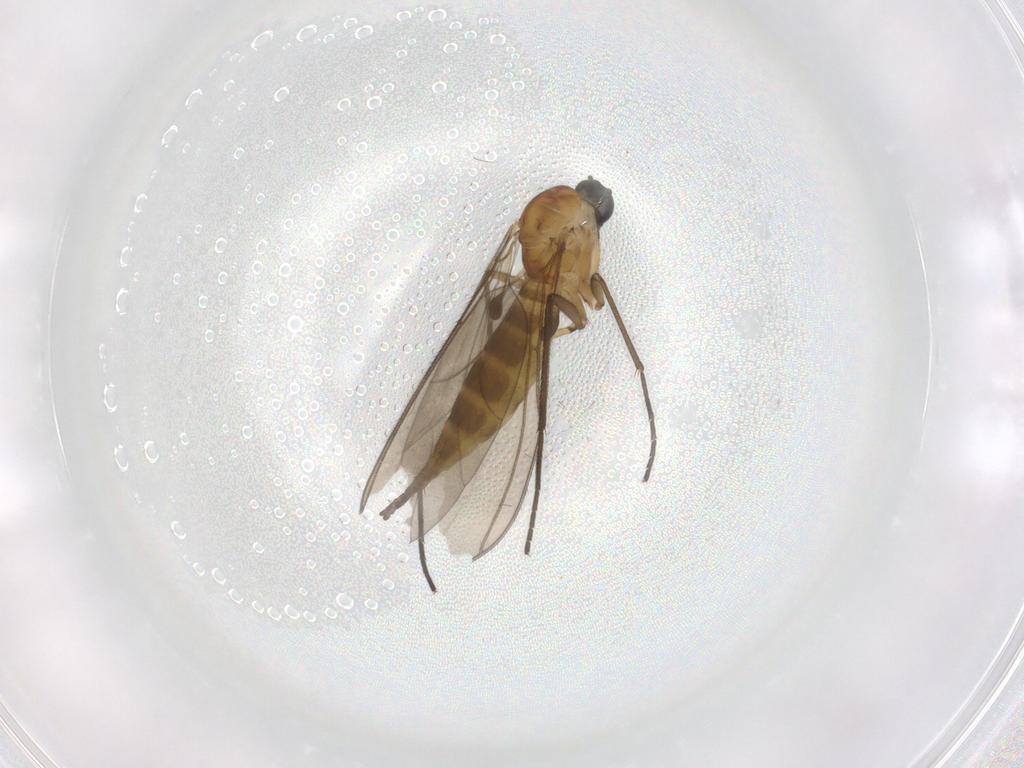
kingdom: Animalia
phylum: Arthropoda
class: Insecta
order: Diptera
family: Sciaridae
